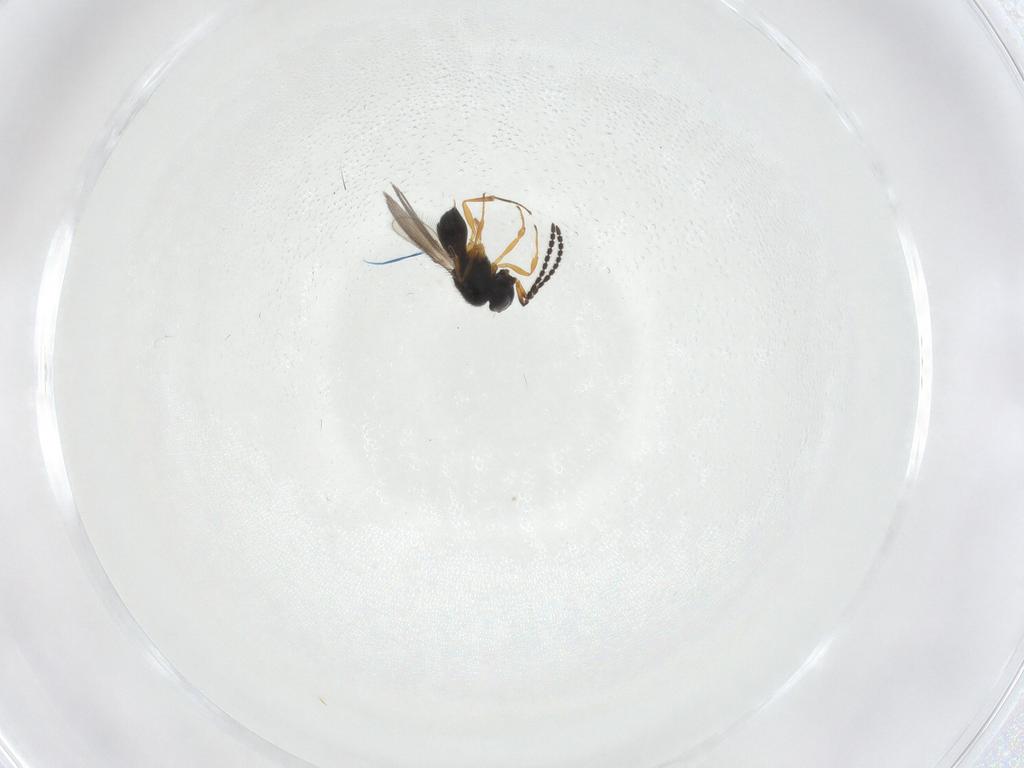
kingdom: Animalia
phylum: Arthropoda
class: Insecta
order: Hymenoptera
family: Scelionidae
